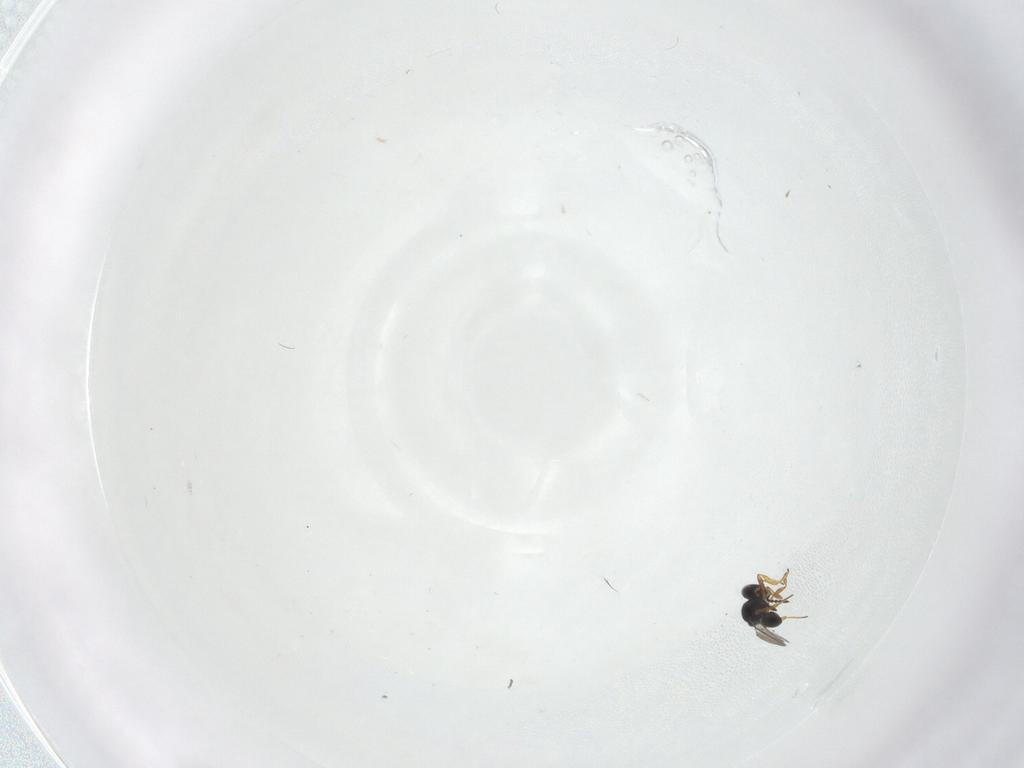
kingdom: Animalia
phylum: Arthropoda
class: Insecta
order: Hymenoptera
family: Platygastridae
